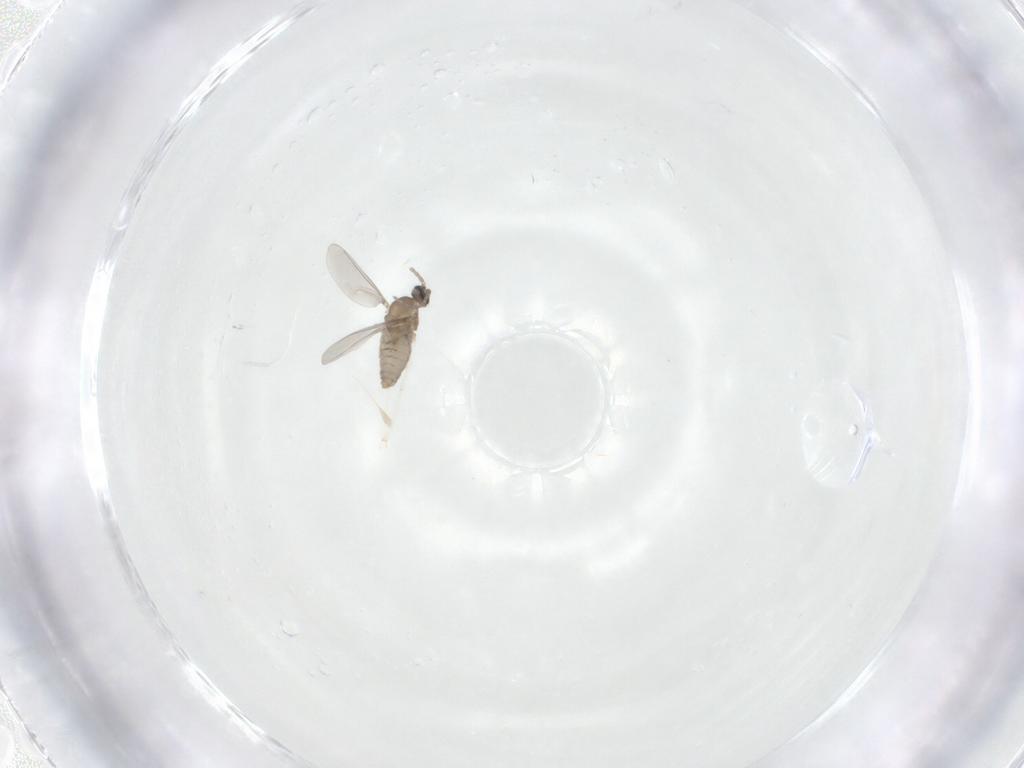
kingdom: Animalia
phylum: Arthropoda
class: Insecta
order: Diptera
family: Cecidomyiidae
